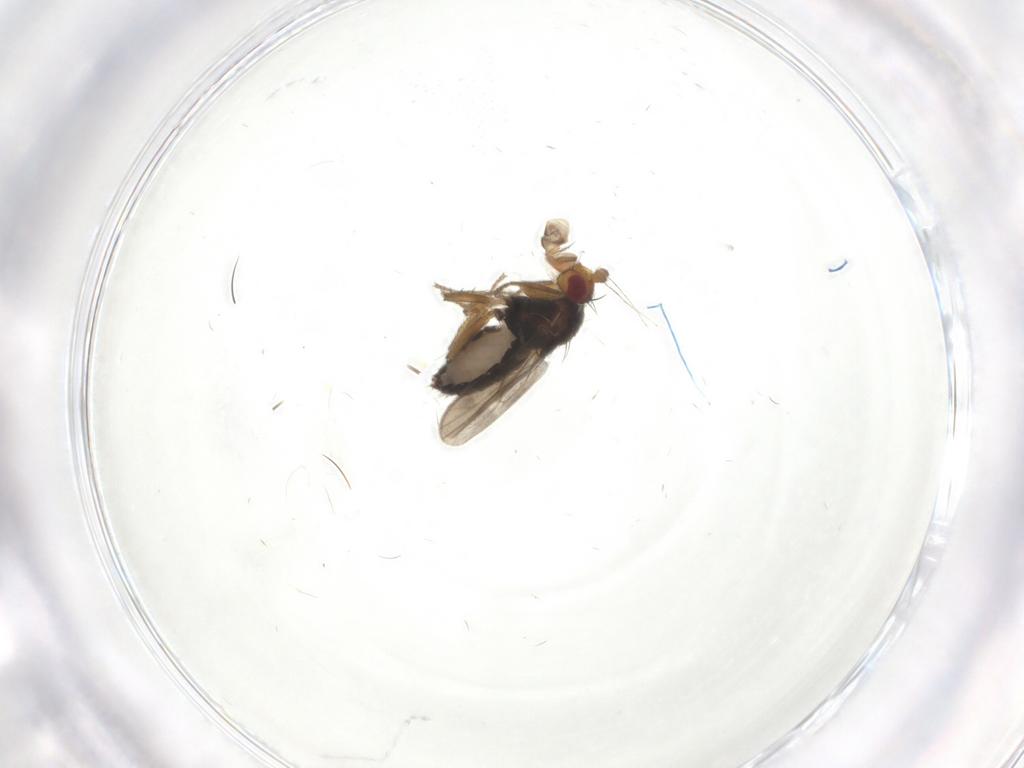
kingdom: Animalia
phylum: Arthropoda
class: Insecta
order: Diptera
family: Sphaeroceridae
